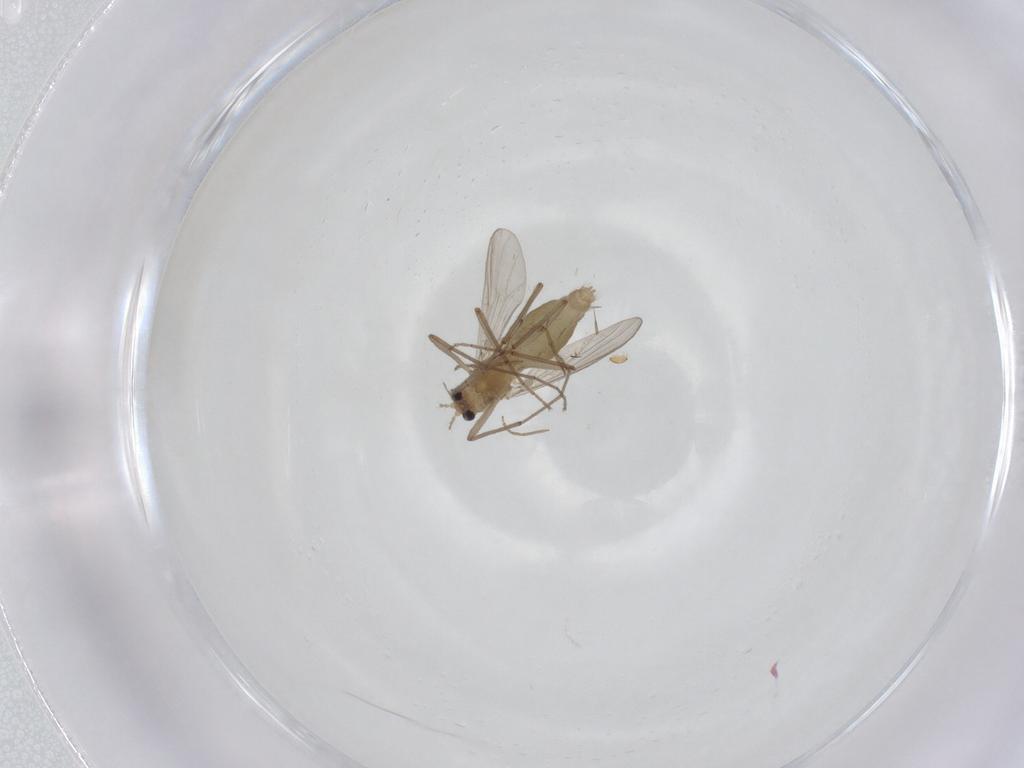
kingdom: Animalia
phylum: Arthropoda
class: Insecta
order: Diptera
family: Chironomidae
